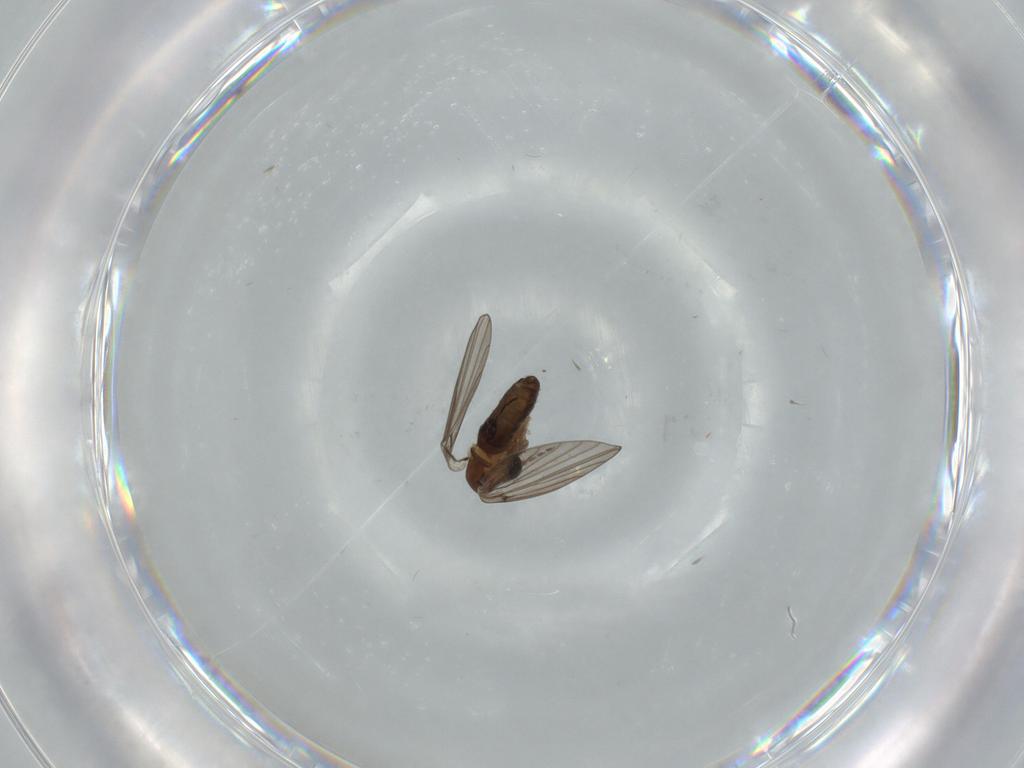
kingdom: Animalia
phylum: Arthropoda
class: Insecta
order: Diptera
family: Psychodidae
